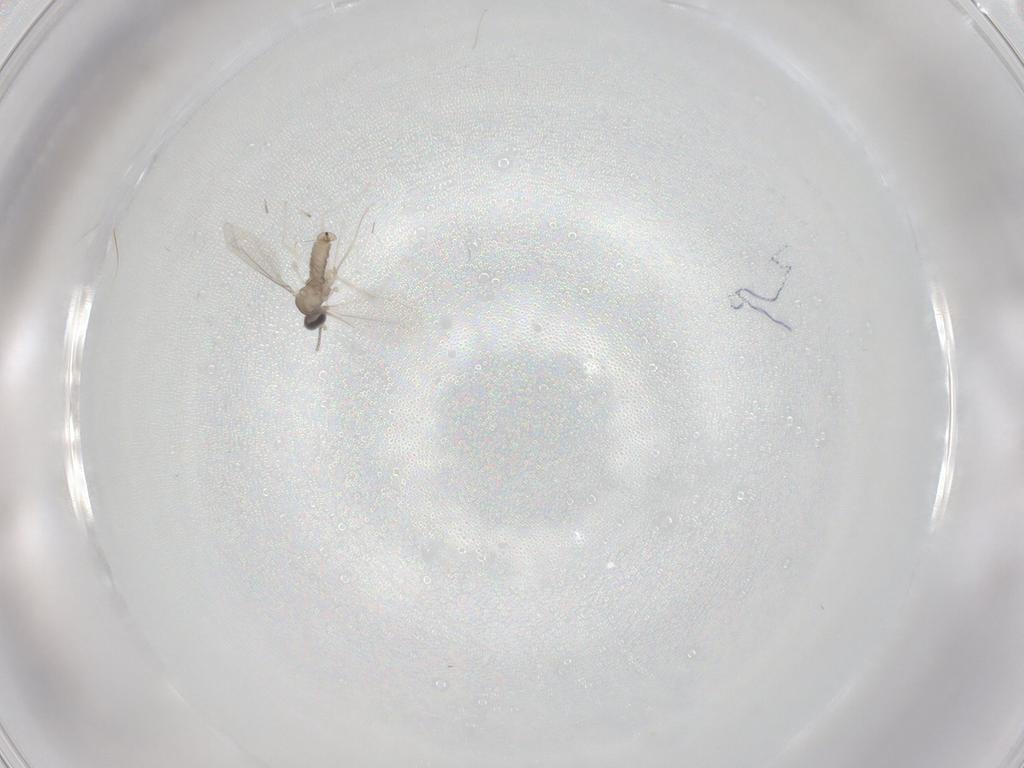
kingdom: Animalia
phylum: Arthropoda
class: Insecta
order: Diptera
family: Cecidomyiidae
